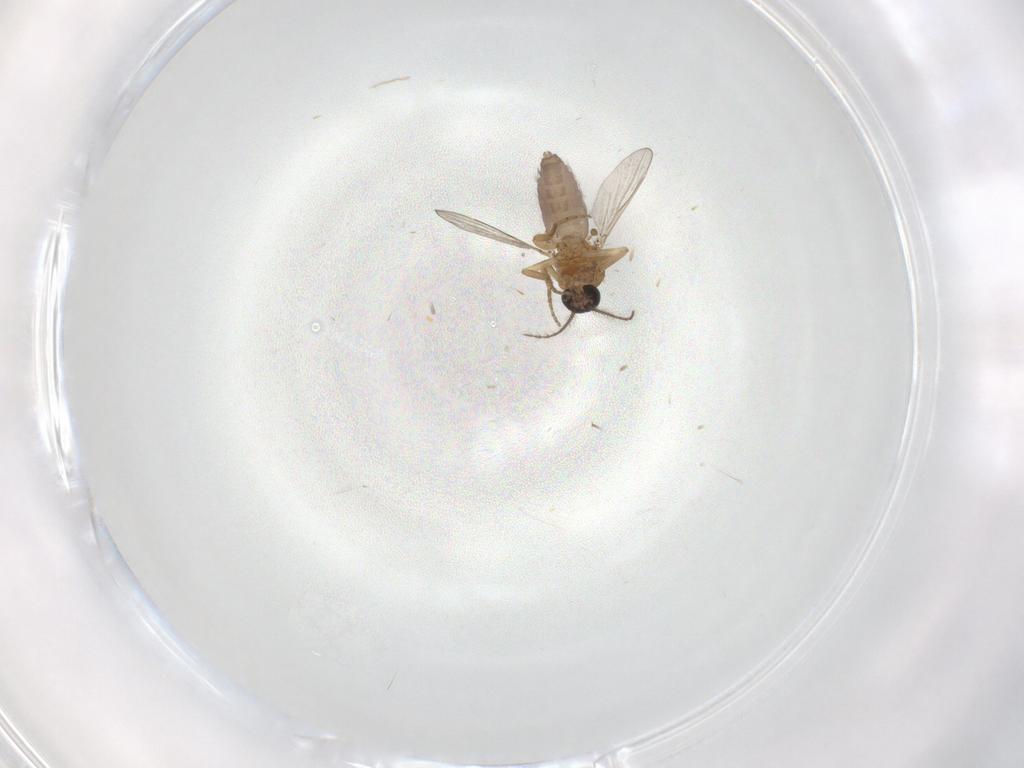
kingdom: Animalia
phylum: Arthropoda
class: Insecta
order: Diptera
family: Ceratopogonidae
